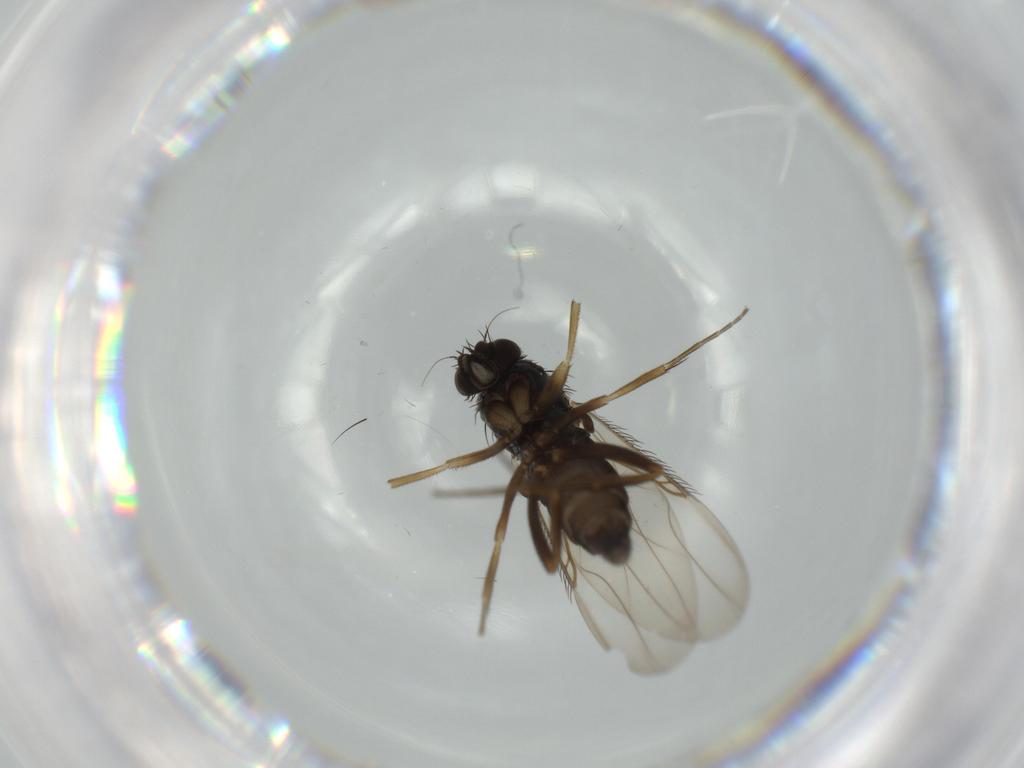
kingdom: Animalia
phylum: Arthropoda
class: Insecta
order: Diptera
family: Phoridae
